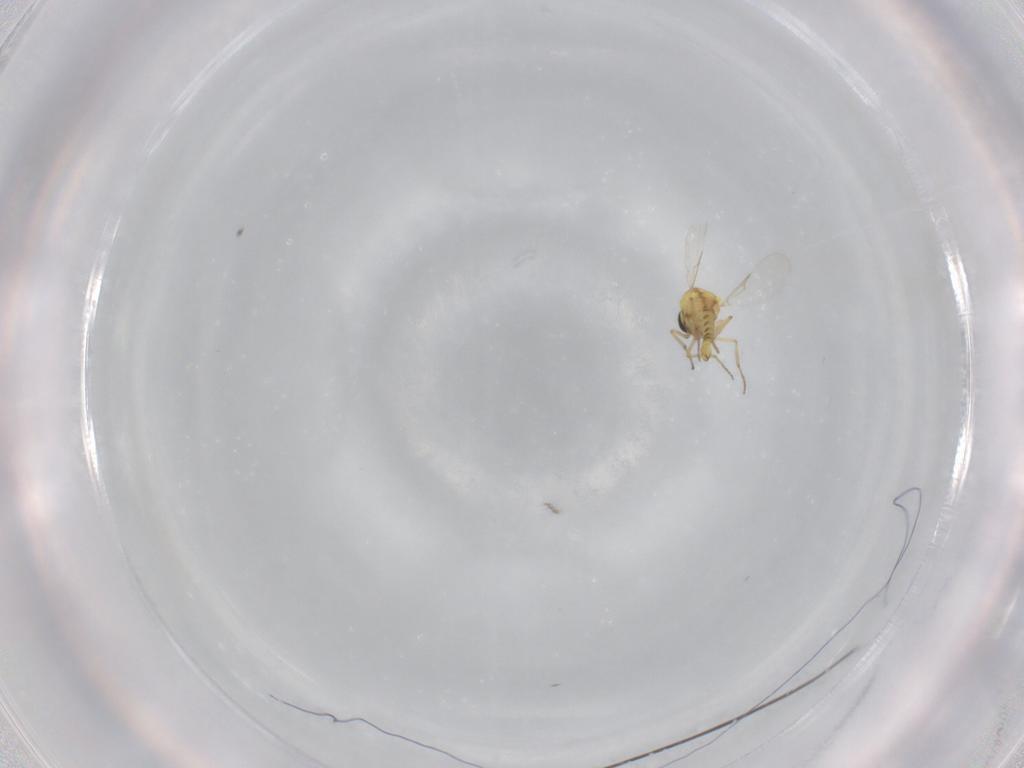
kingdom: Animalia
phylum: Arthropoda
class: Insecta
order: Diptera
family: Ceratopogonidae
